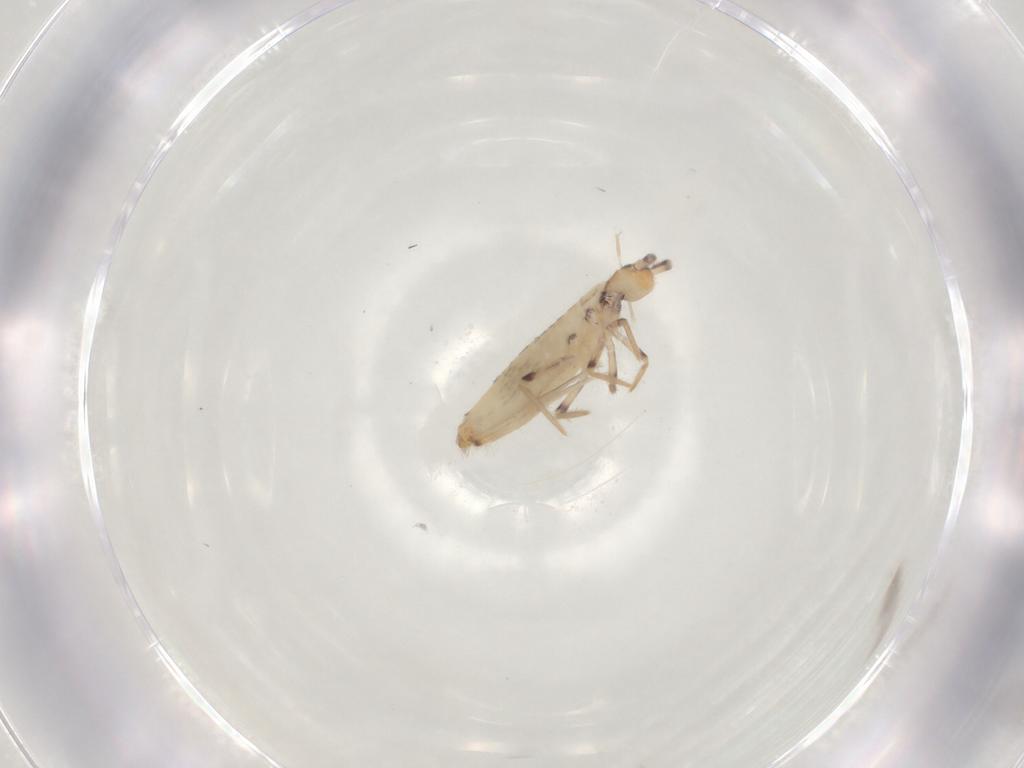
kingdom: Animalia
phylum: Arthropoda
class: Collembola
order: Entomobryomorpha
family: Entomobryidae
